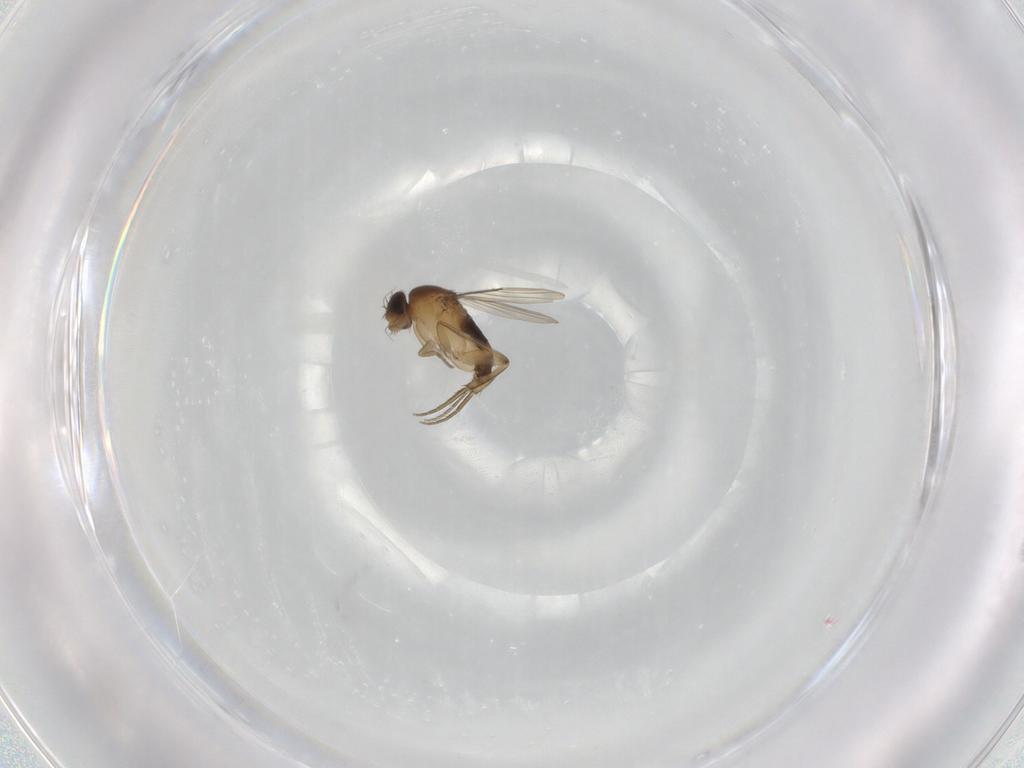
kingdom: Animalia
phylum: Arthropoda
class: Insecta
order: Diptera
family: Phoridae
